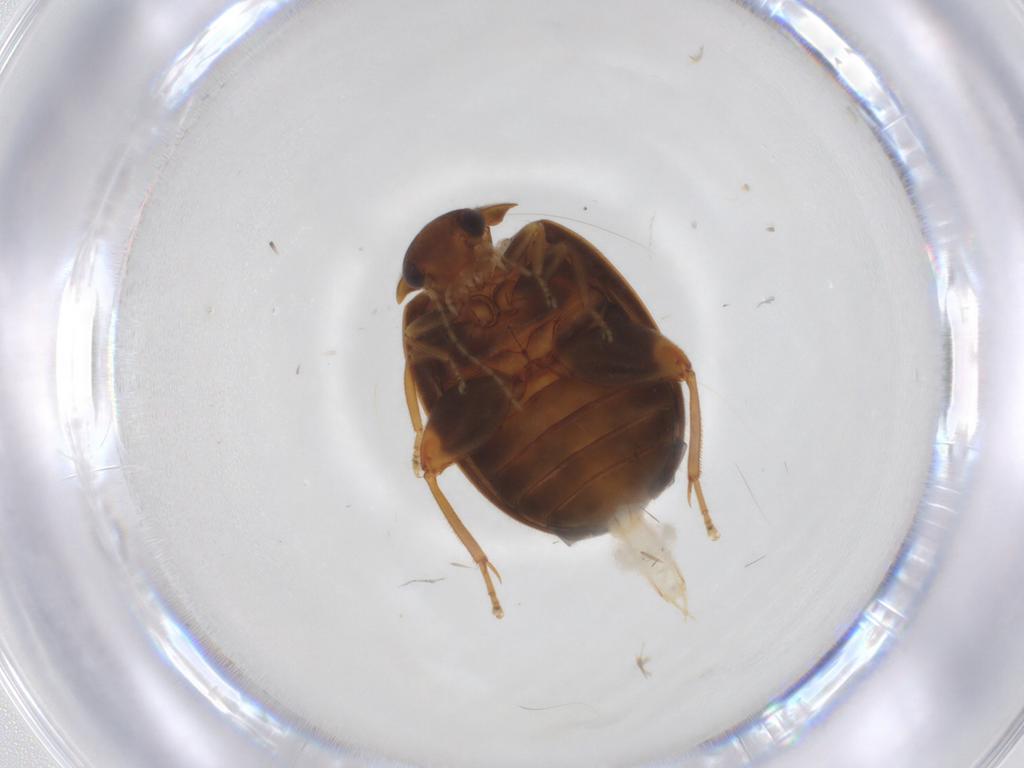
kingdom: Animalia
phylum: Arthropoda
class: Insecta
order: Coleoptera
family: Scirtidae
